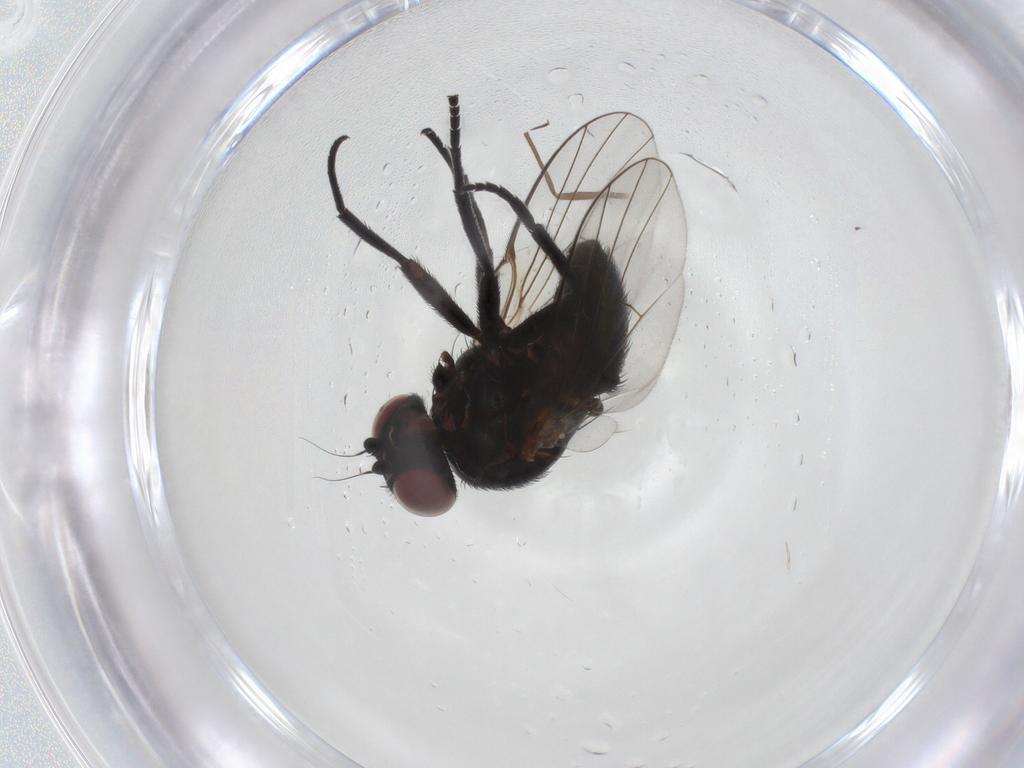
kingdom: Animalia
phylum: Arthropoda
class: Insecta
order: Diptera
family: Agromyzidae
